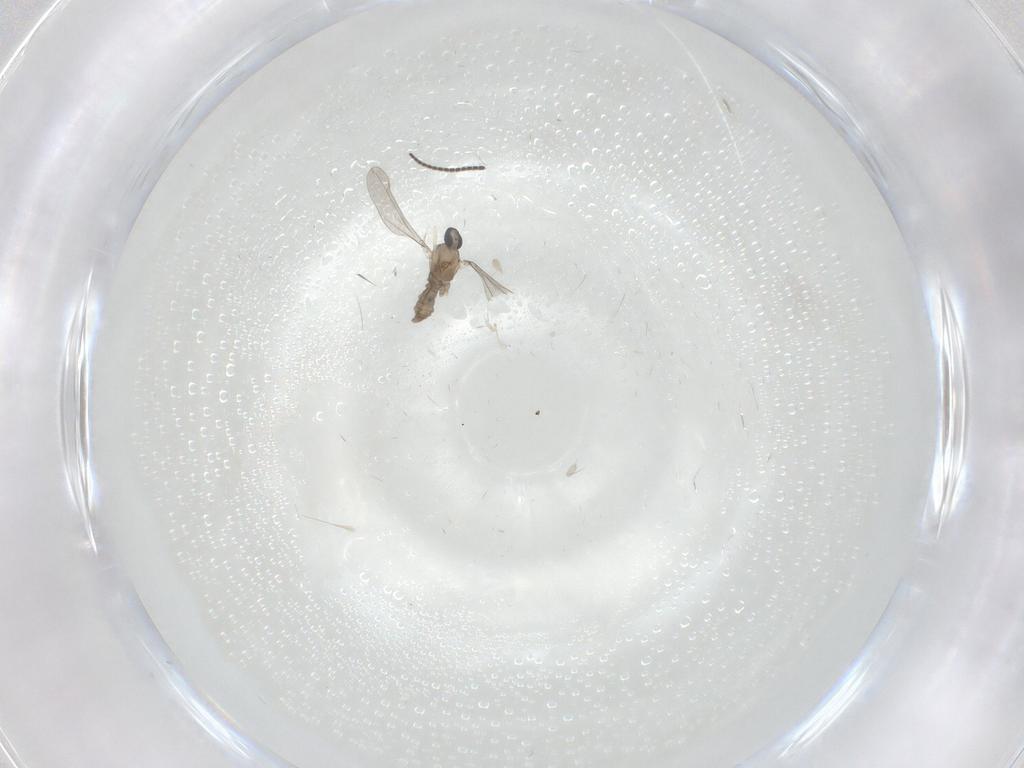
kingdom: Animalia
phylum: Arthropoda
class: Insecta
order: Diptera
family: Sciaridae
